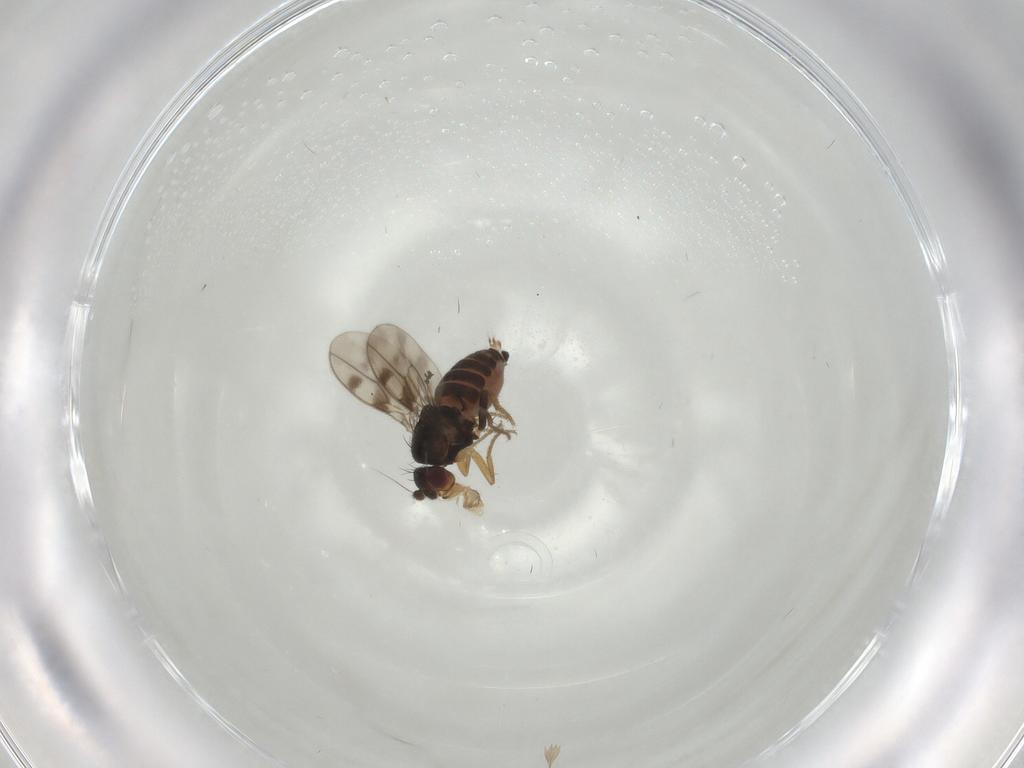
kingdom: Animalia
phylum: Arthropoda
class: Insecta
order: Diptera
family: Sphaeroceridae
